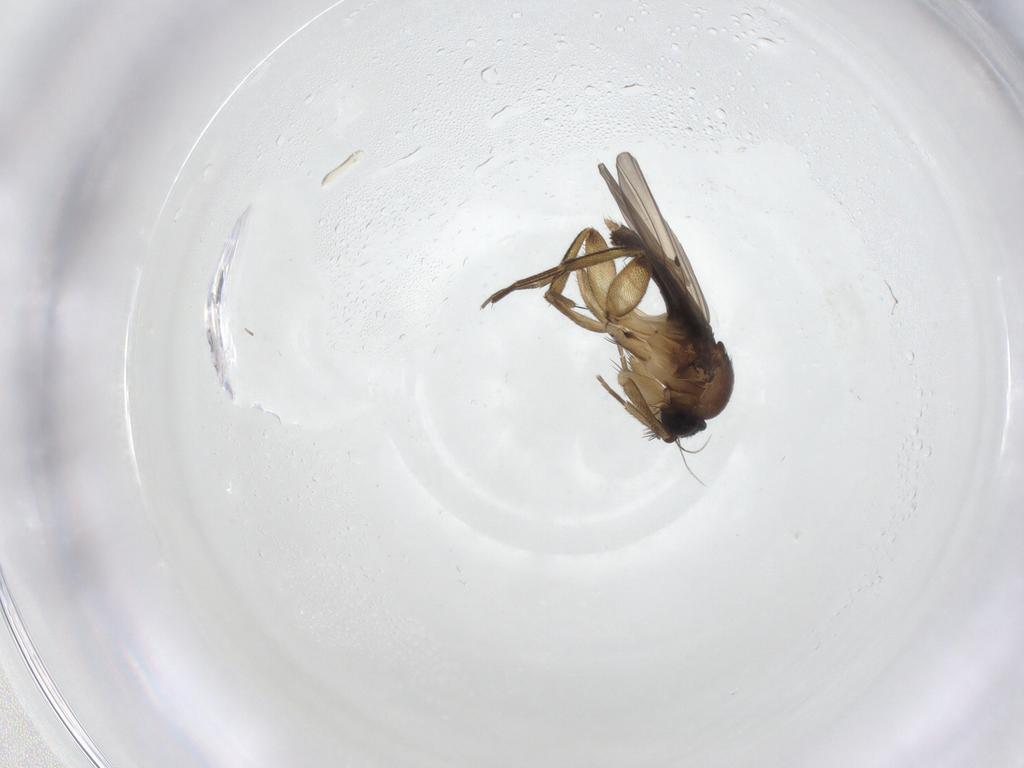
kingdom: Animalia
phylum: Arthropoda
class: Insecta
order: Diptera
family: Phoridae
